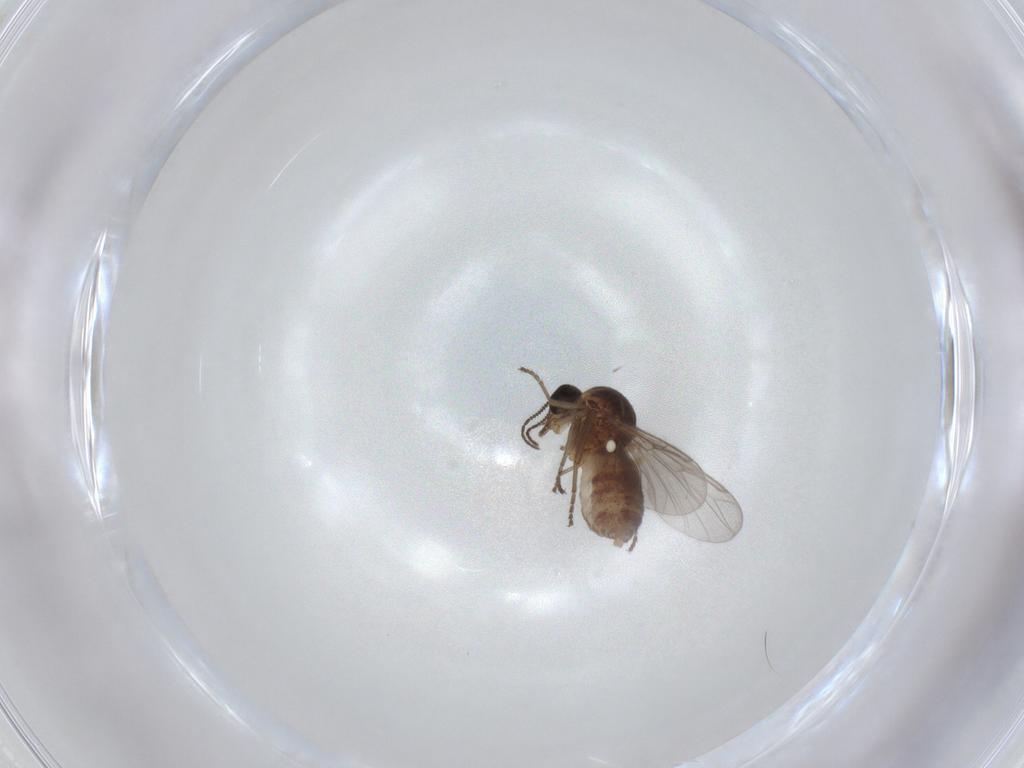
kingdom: Animalia
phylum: Arthropoda
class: Insecta
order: Diptera
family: Ceratopogonidae
